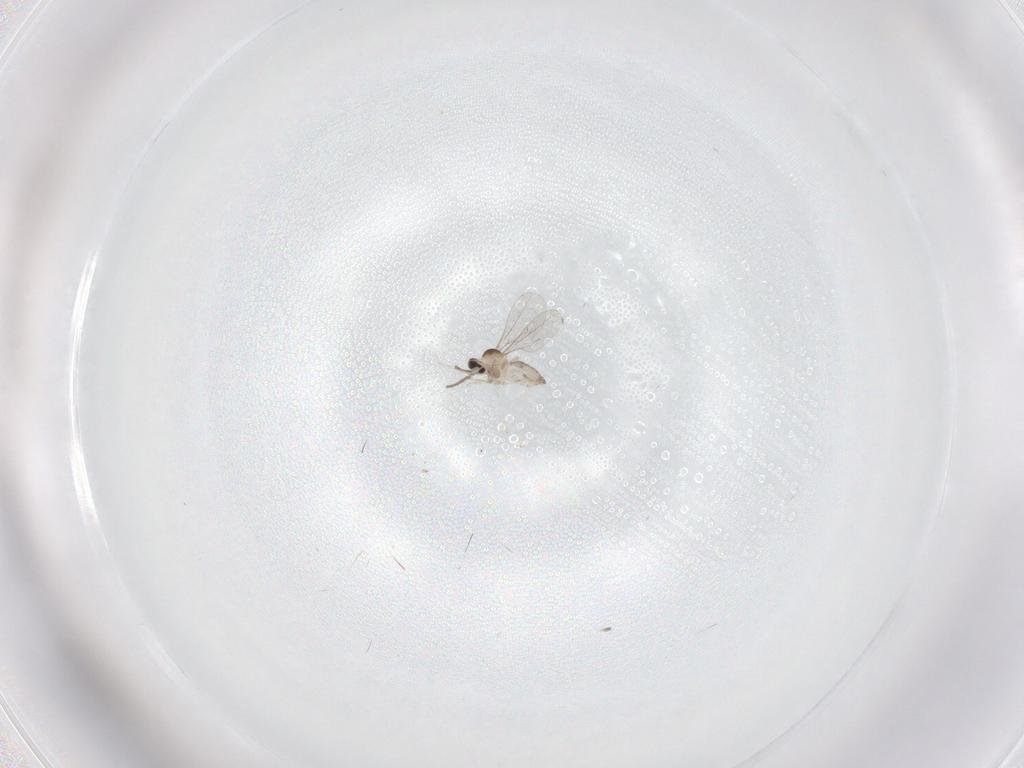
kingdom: Animalia
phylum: Arthropoda
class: Insecta
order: Diptera
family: Cecidomyiidae
